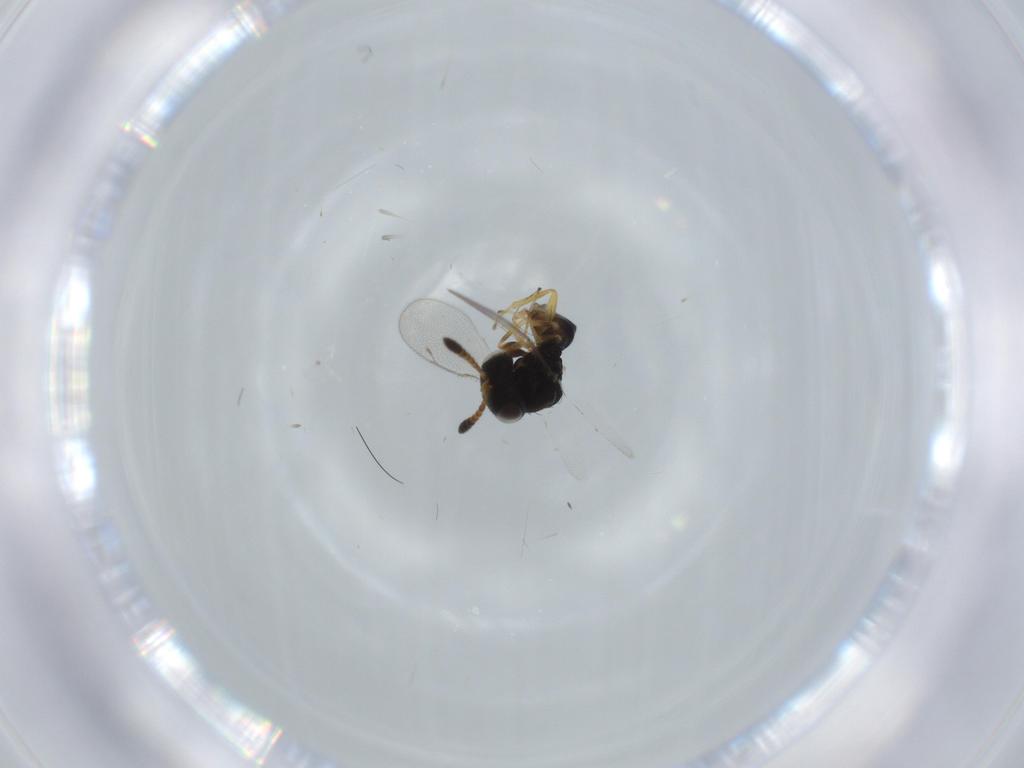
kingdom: Animalia
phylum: Arthropoda
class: Insecta
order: Hymenoptera
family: Pteromalidae
